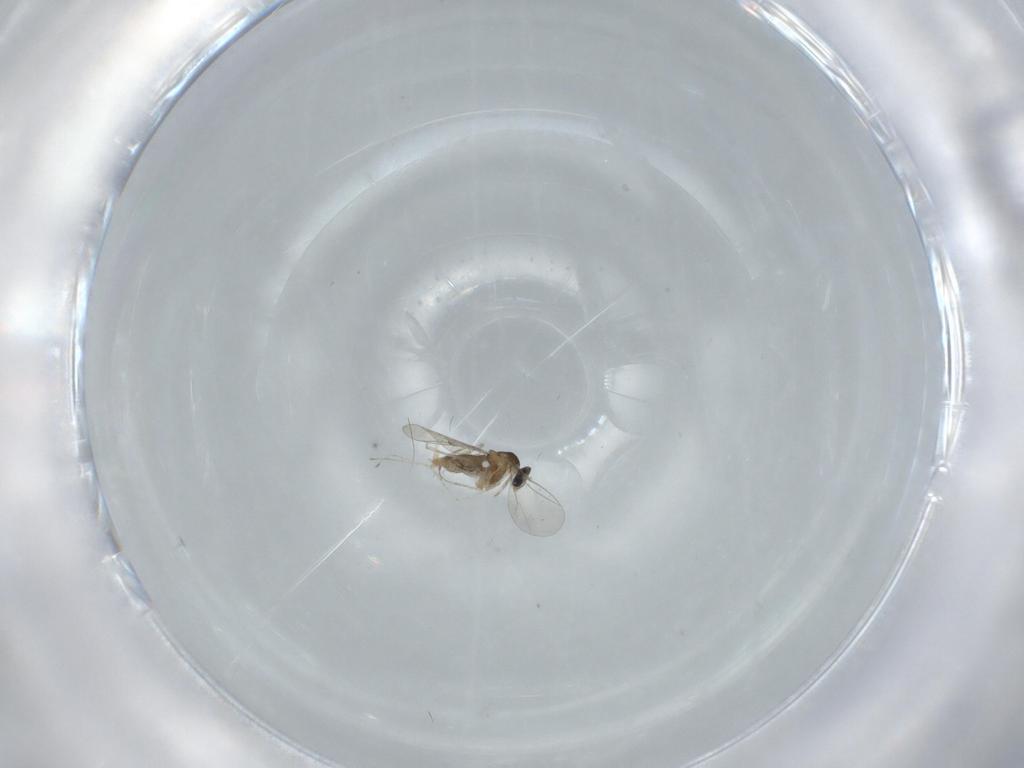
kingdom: Animalia
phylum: Arthropoda
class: Insecta
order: Diptera
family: Cecidomyiidae
